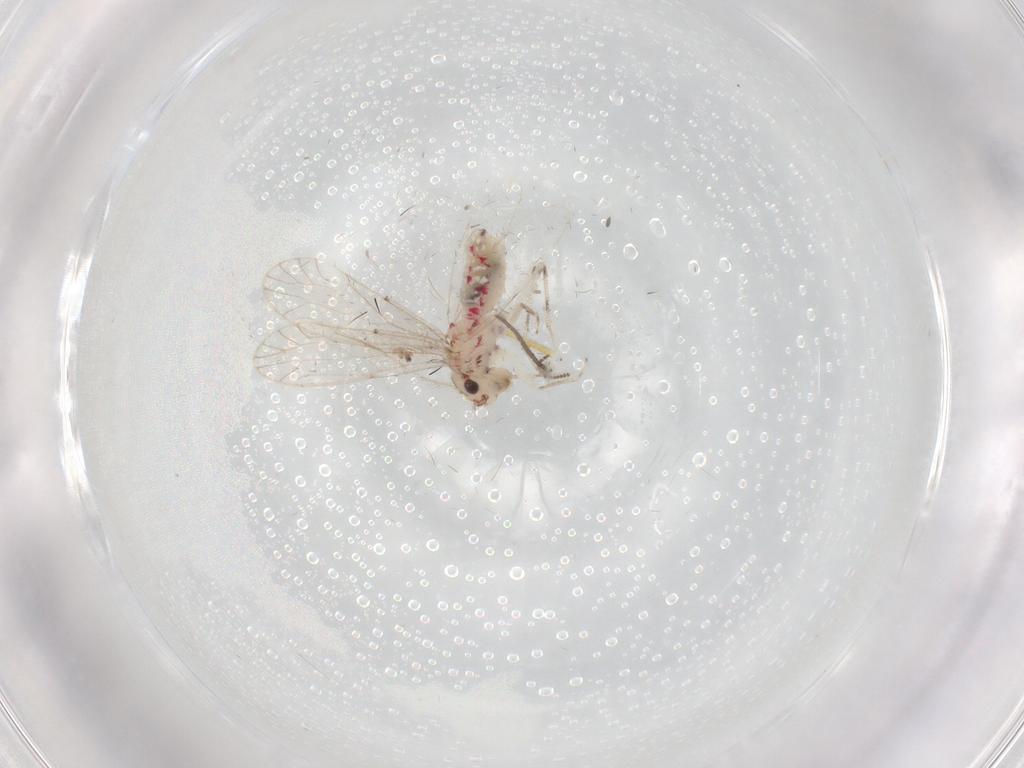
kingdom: Animalia
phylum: Arthropoda
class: Insecta
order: Psocodea
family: Caeciliusidae
